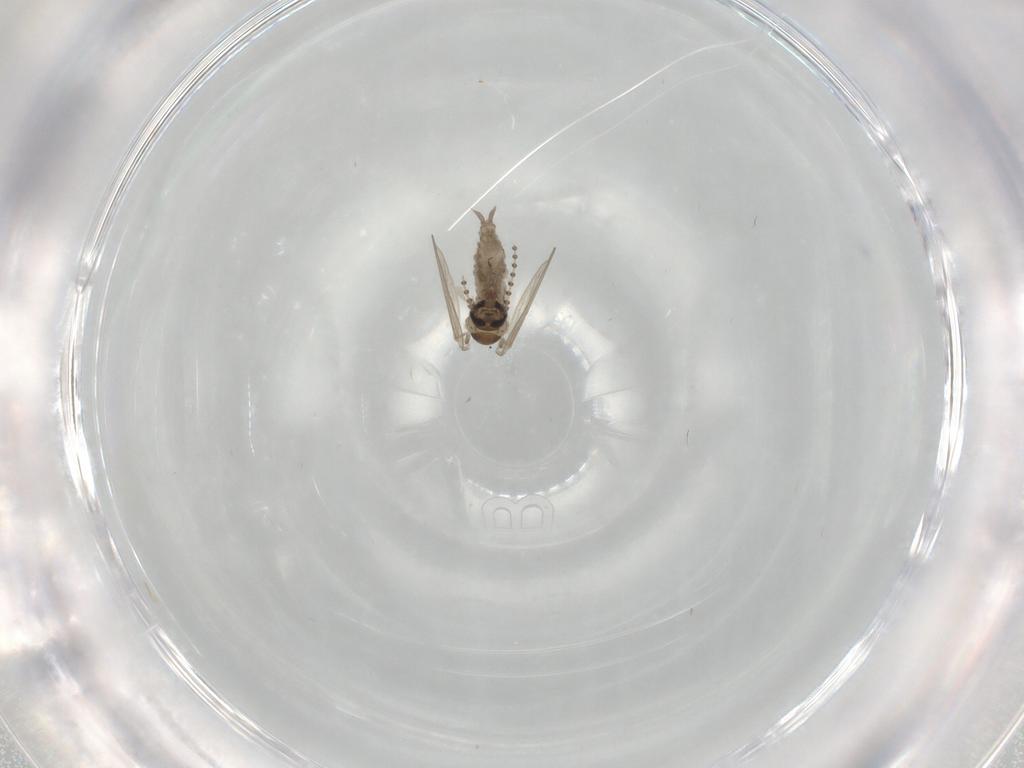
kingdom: Animalia
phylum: Arthropoda
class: Insecta
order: Diptera
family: Psychodidae
